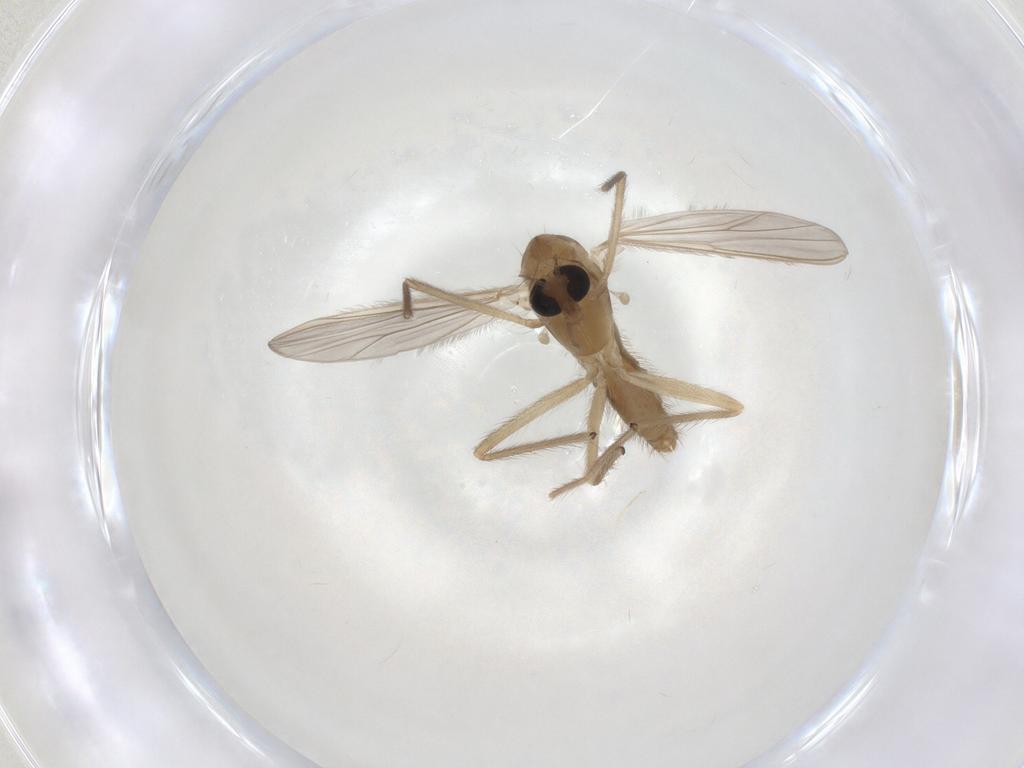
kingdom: Animalia
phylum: Arthropoda
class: Insecta
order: Diptera
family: Chironomidae
